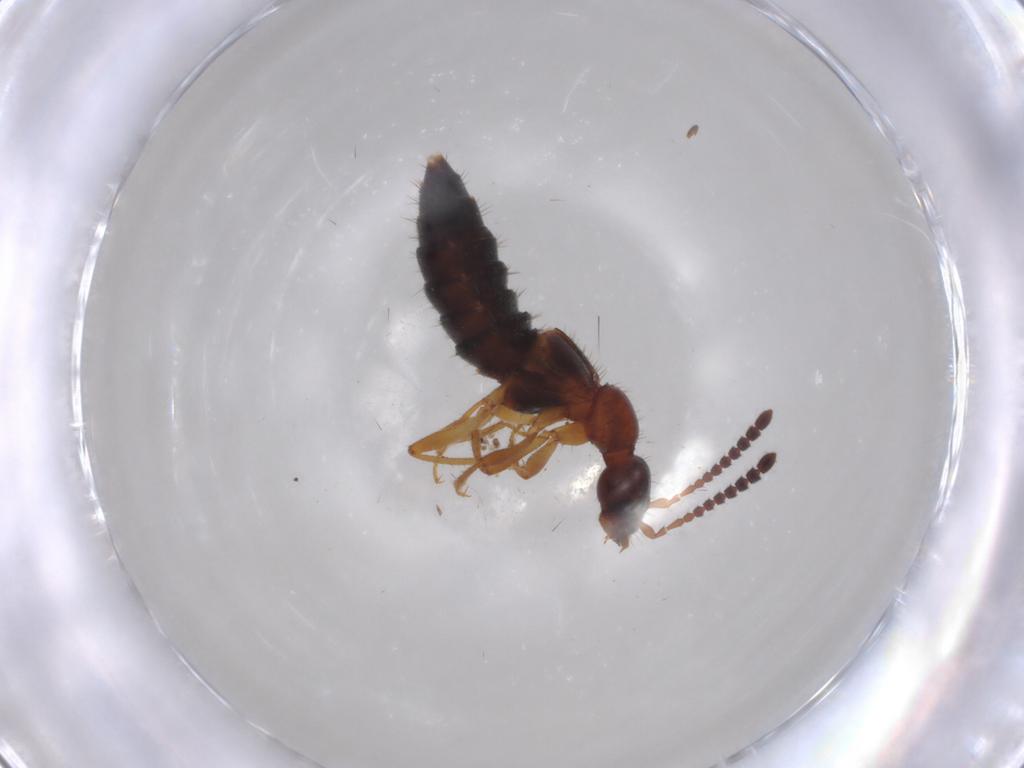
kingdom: Animalia
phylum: Arthropoda
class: Insecta
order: Coleoptera
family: Staphylinidae
